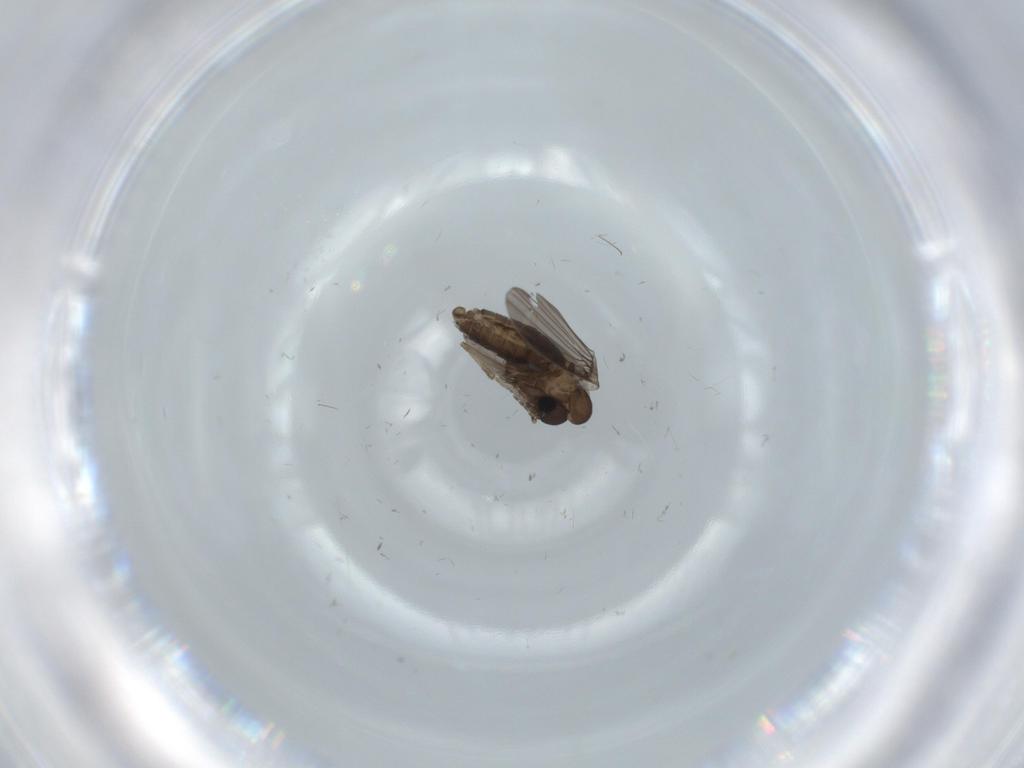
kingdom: Animalia
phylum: Arthropoda
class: Insecta
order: Diptera
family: Phoridae
